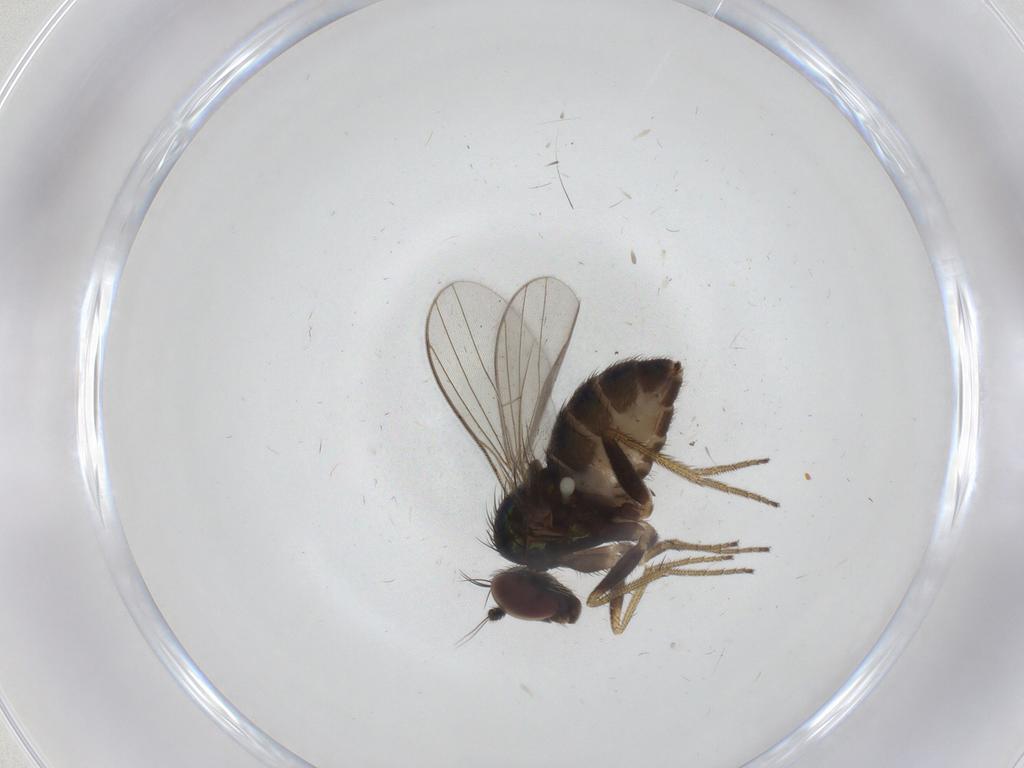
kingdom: Animalia
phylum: Arthropoda
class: Insecta
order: Diptera
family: Dolichopodidae
